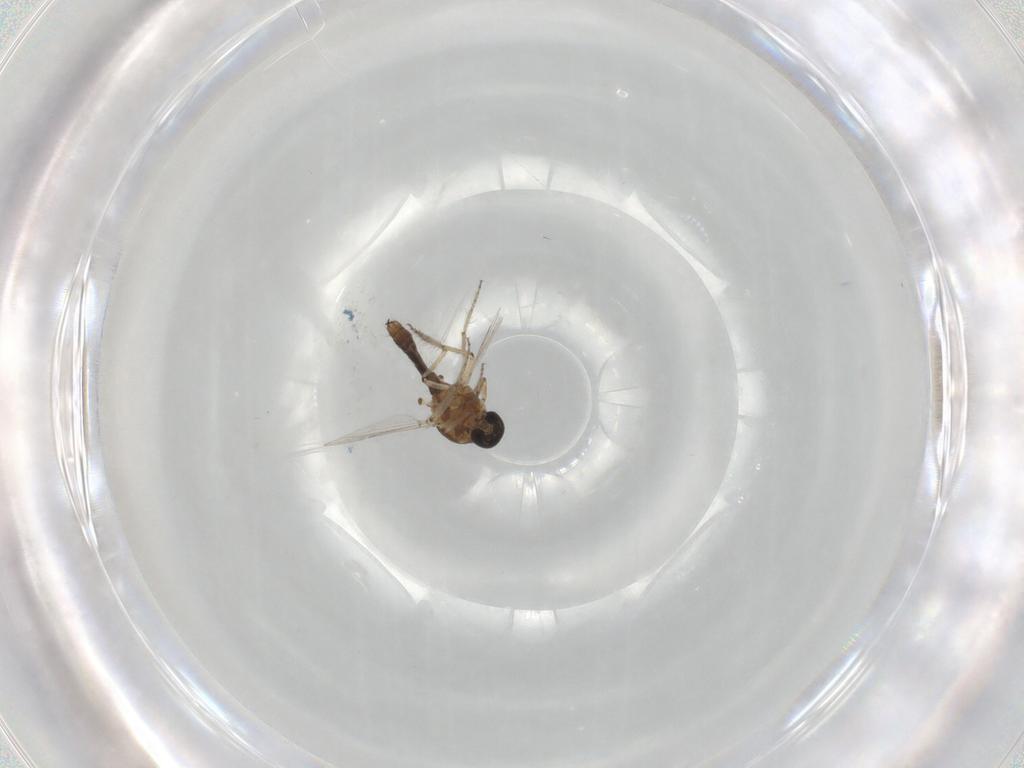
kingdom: Animalia
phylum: Arthropoda
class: Insecta
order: Diptera
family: Ceratopogonidae
